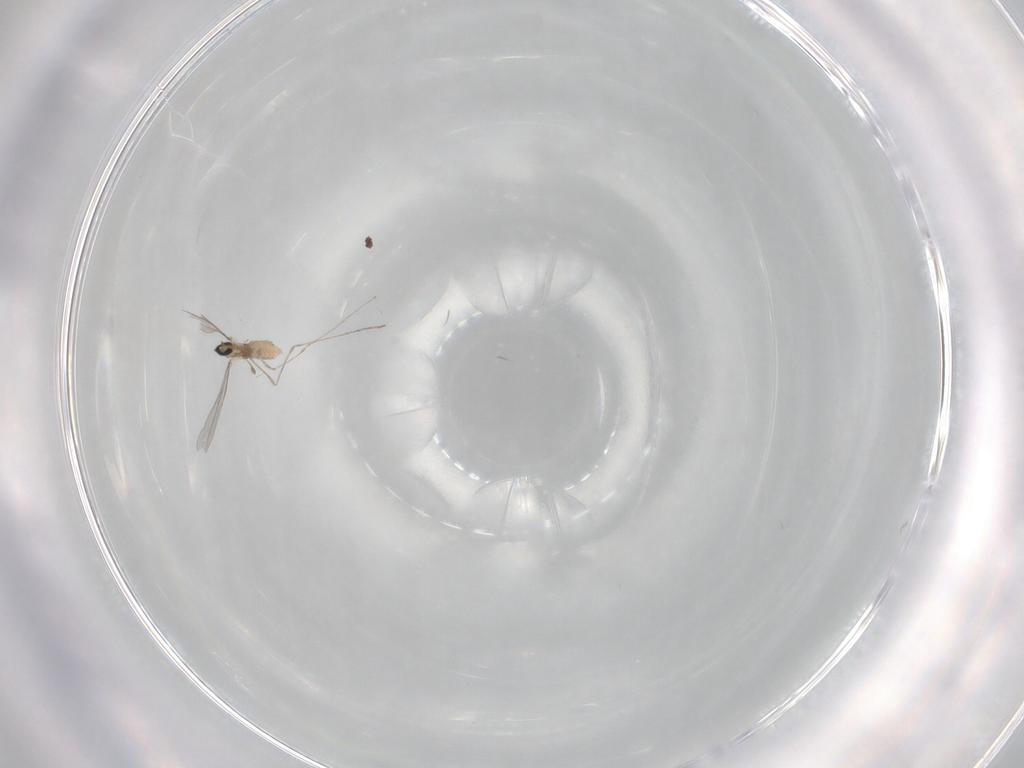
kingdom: Animalia
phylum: Arthropoda
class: Insecta
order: Diptera
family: Cecidomyiidae
